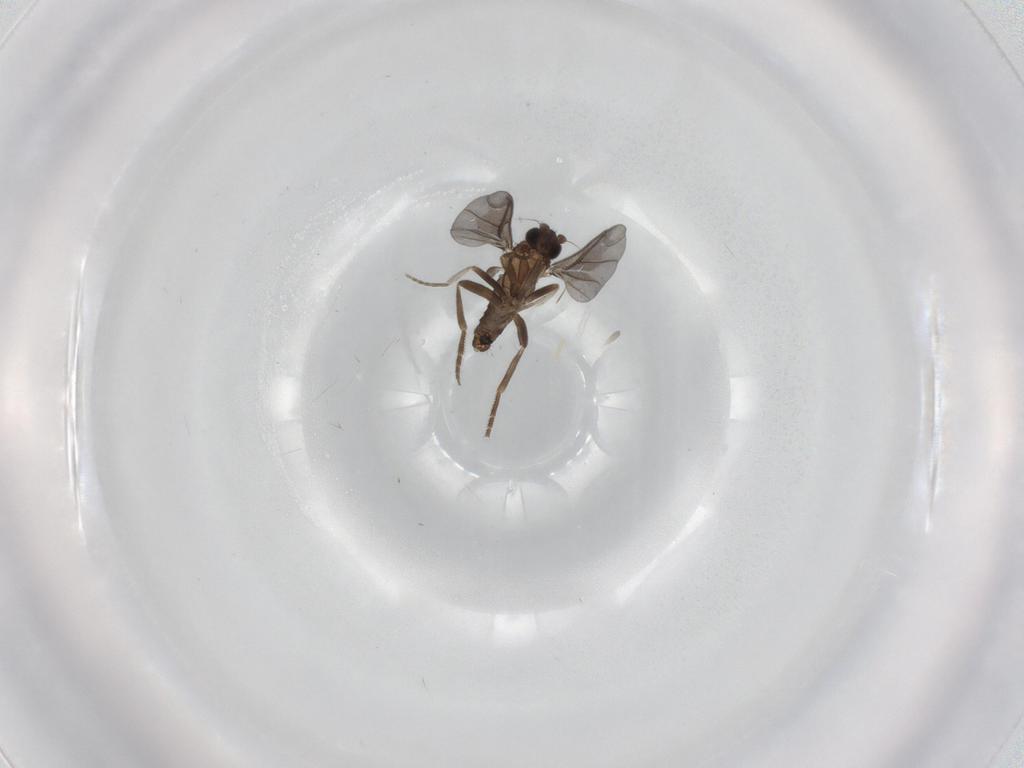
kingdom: Animalia
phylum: Arthropoda
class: Insecta
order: Diptera
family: Phoridae
